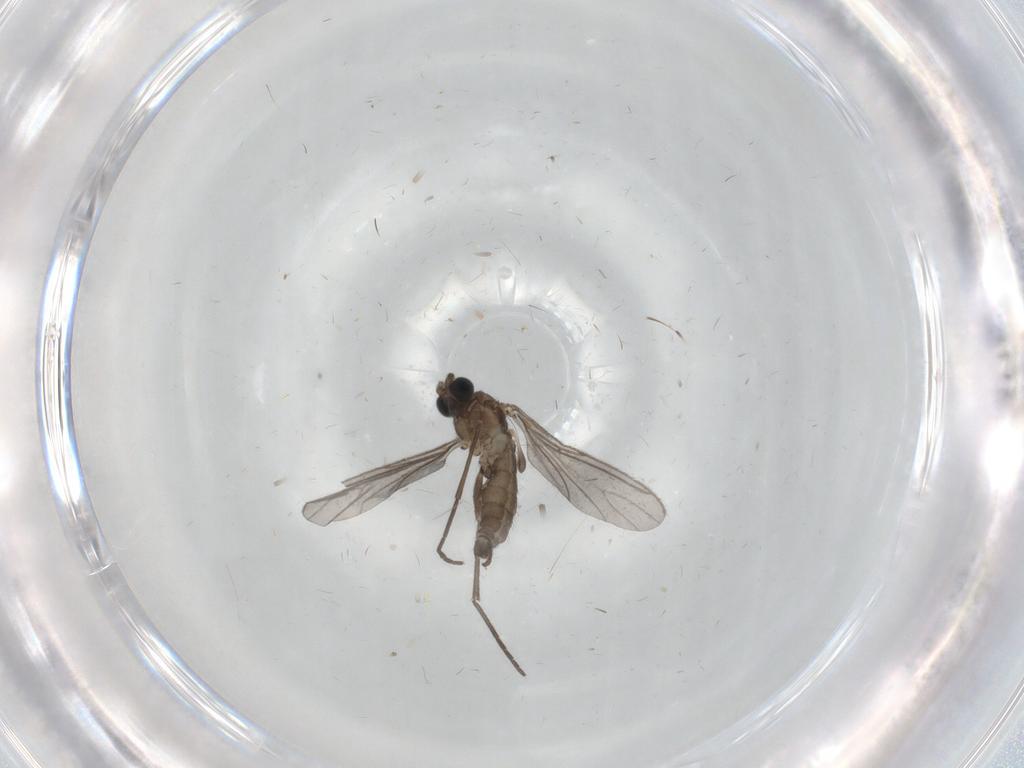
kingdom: Animalia
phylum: Arthropoda
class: Insecta
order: Diptera
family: Sciaridae
